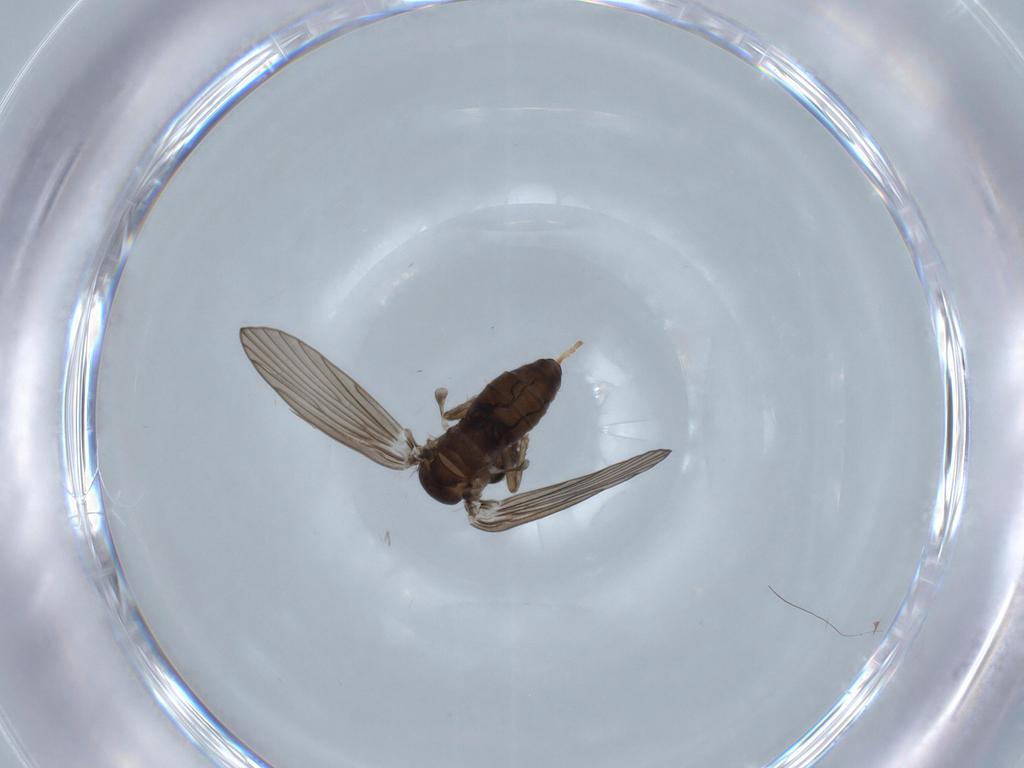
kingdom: Animalia
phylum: Arthropoda
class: Insecta
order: Diptera
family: Psychodidae
